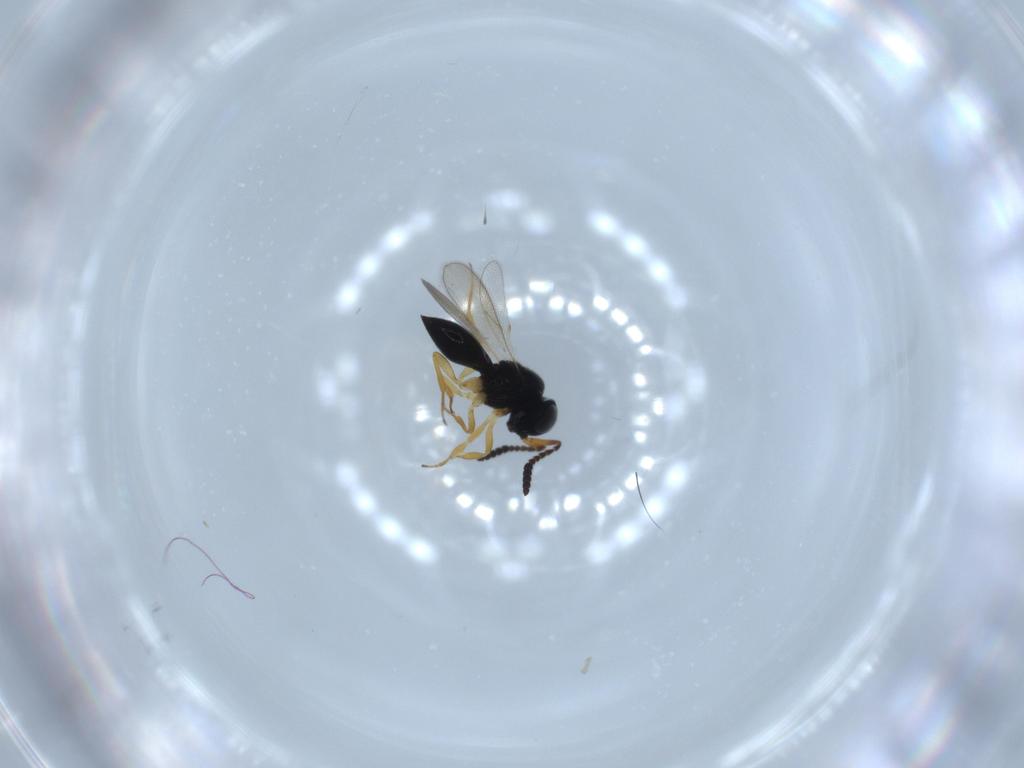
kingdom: Animalia
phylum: Arthropoda
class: Insecta
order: Hymenoptera
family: Scelionidae
